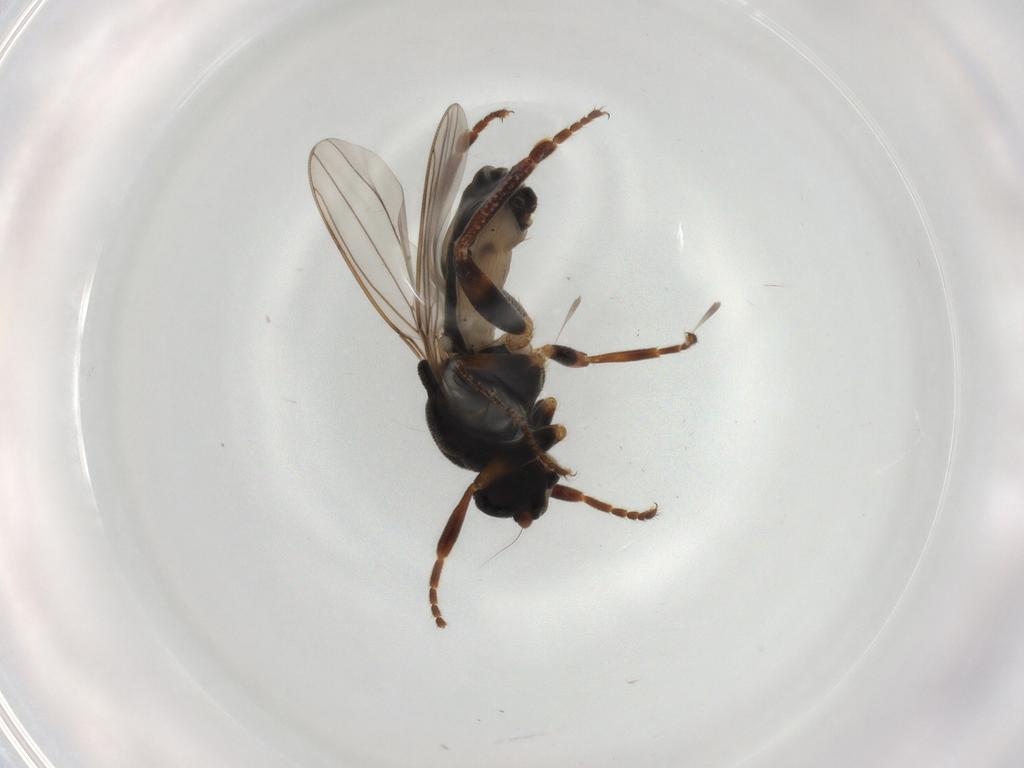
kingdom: Animalia
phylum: Arthropoda
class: Insecta
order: Diptera
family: Sphaeroceridae
